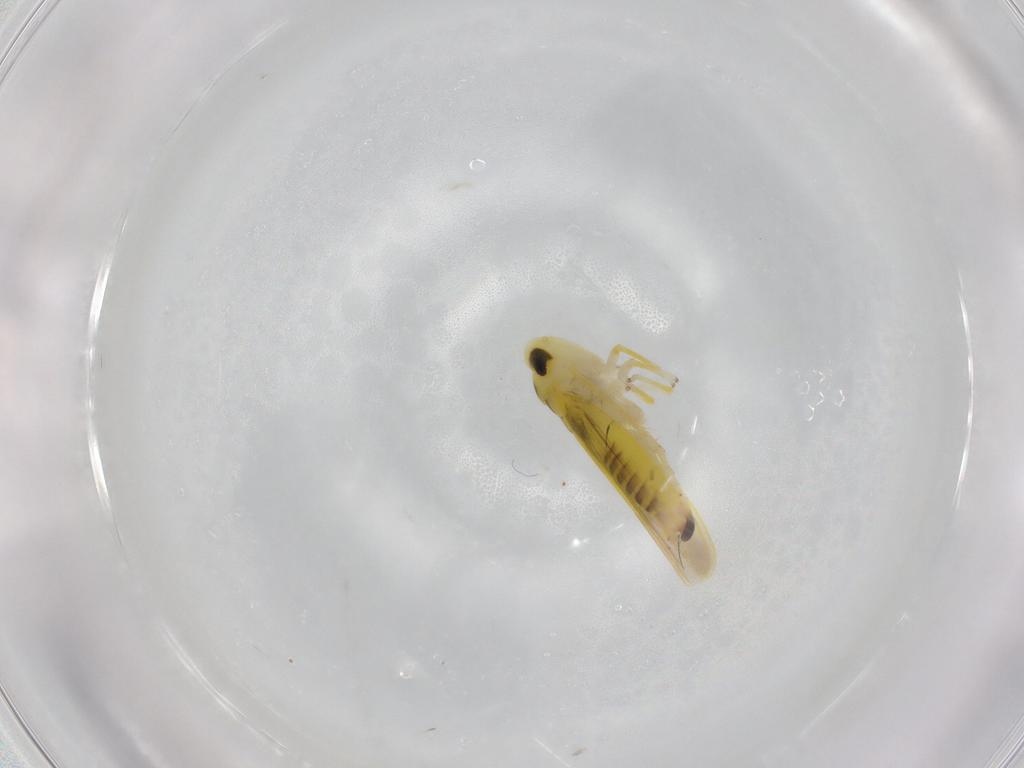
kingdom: Animalia
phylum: Arthropoda
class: Insecta
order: Hemiptera
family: Cicadellidae
